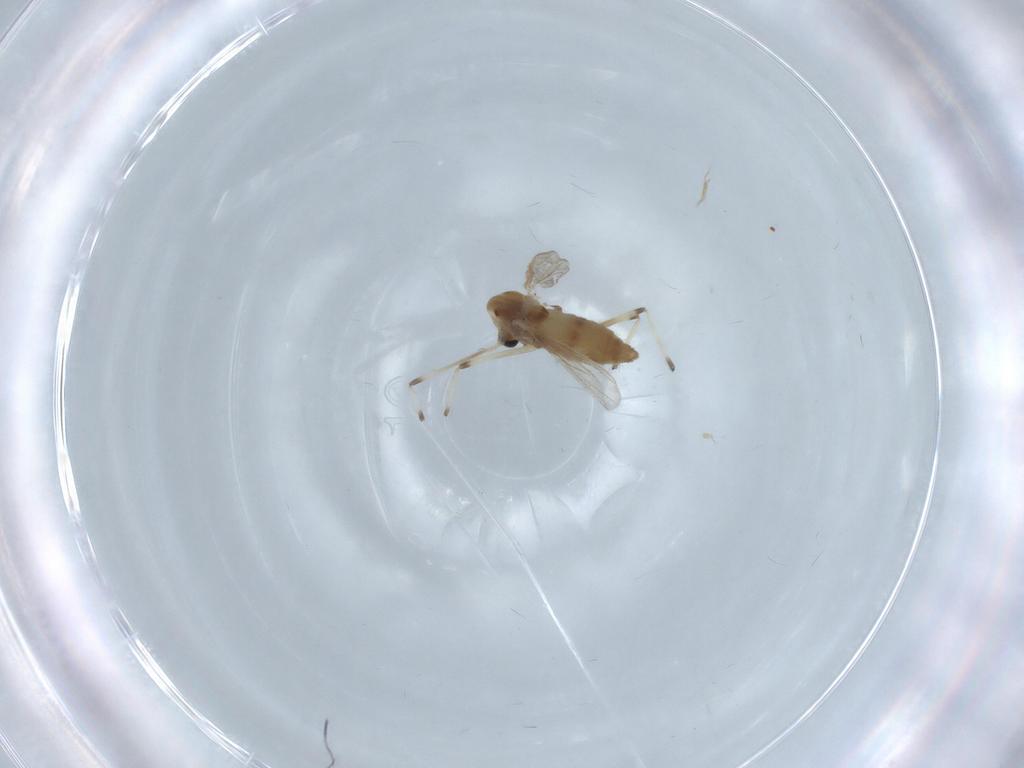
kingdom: Animalia
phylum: Arthropoda
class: Insecta
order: Diptera
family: Chironomidae
